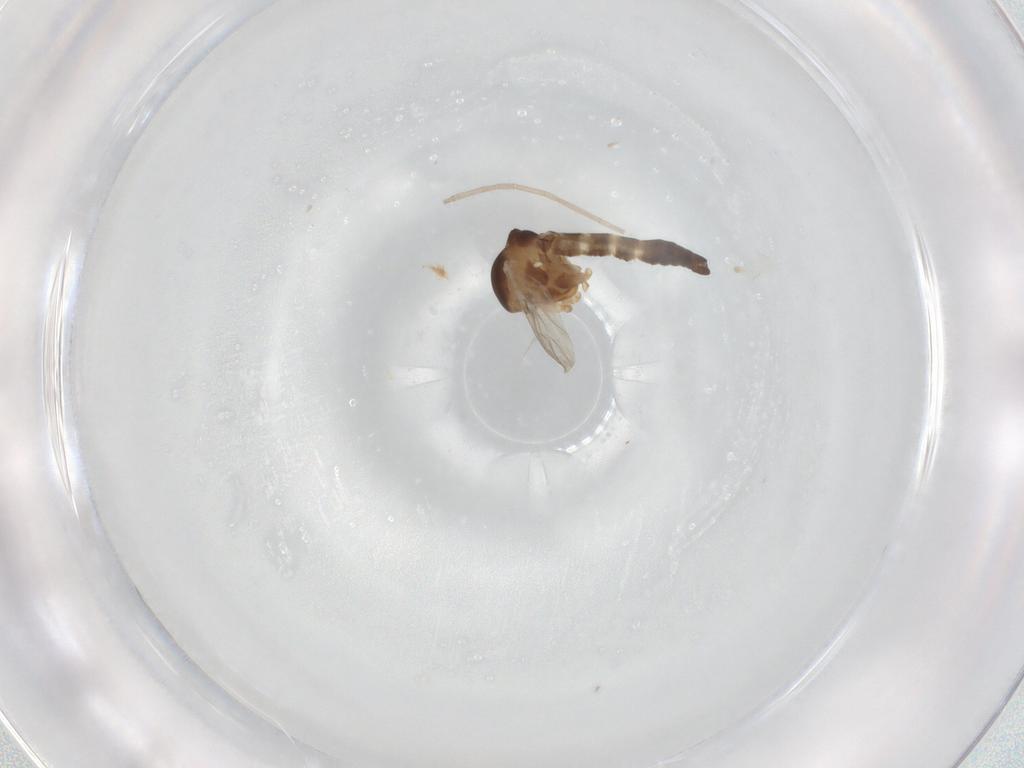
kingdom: Animalia
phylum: Arthropoda
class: Insecta
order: Diptera
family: Ceratopogonidae
